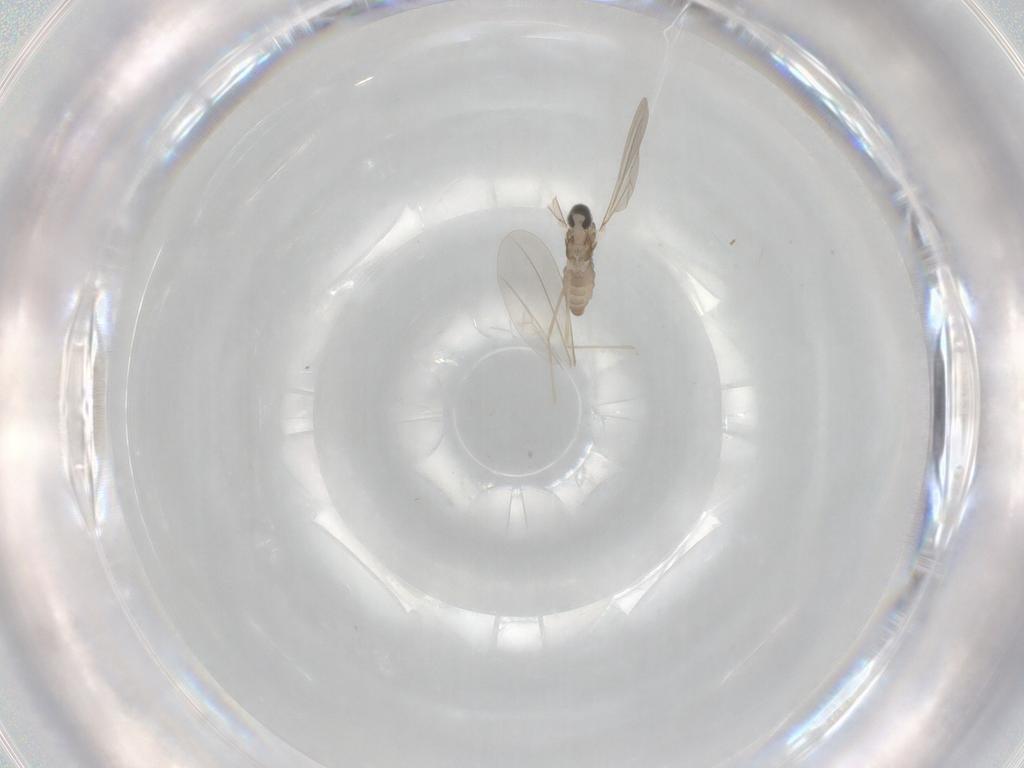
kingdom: Animalia
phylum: Arthropoda
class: Insecta
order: Diptera
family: Cecidomyiidae
